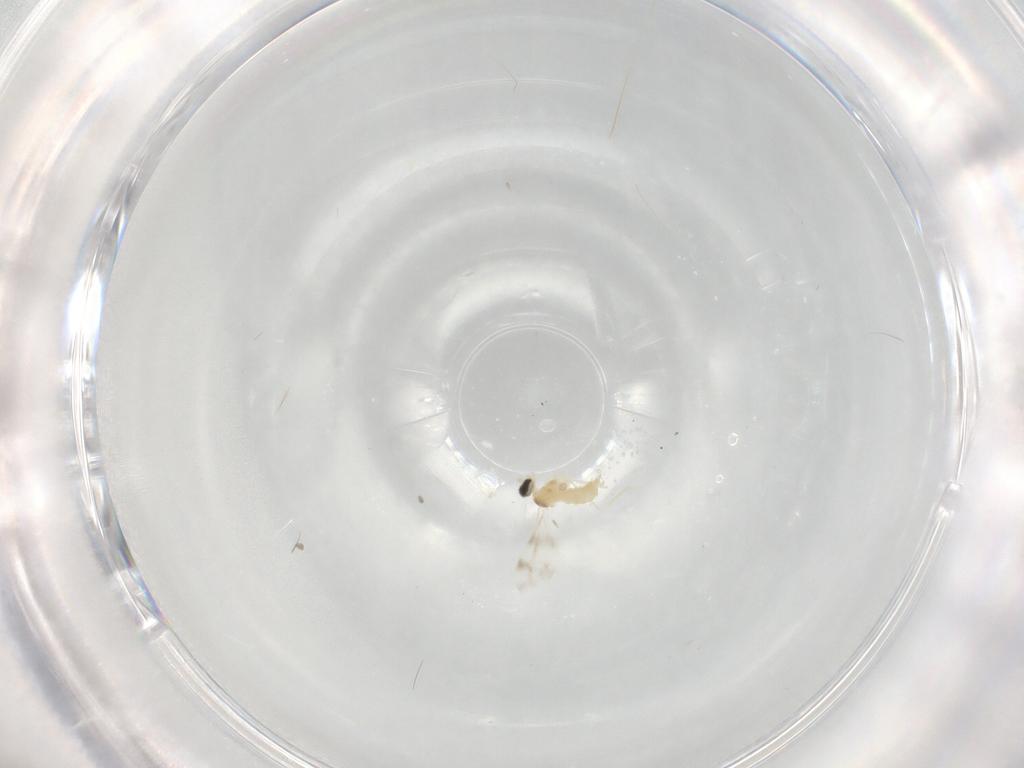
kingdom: Animalia
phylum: Arthropoda
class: Insecta
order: Diptera
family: Cecidomyiidae
